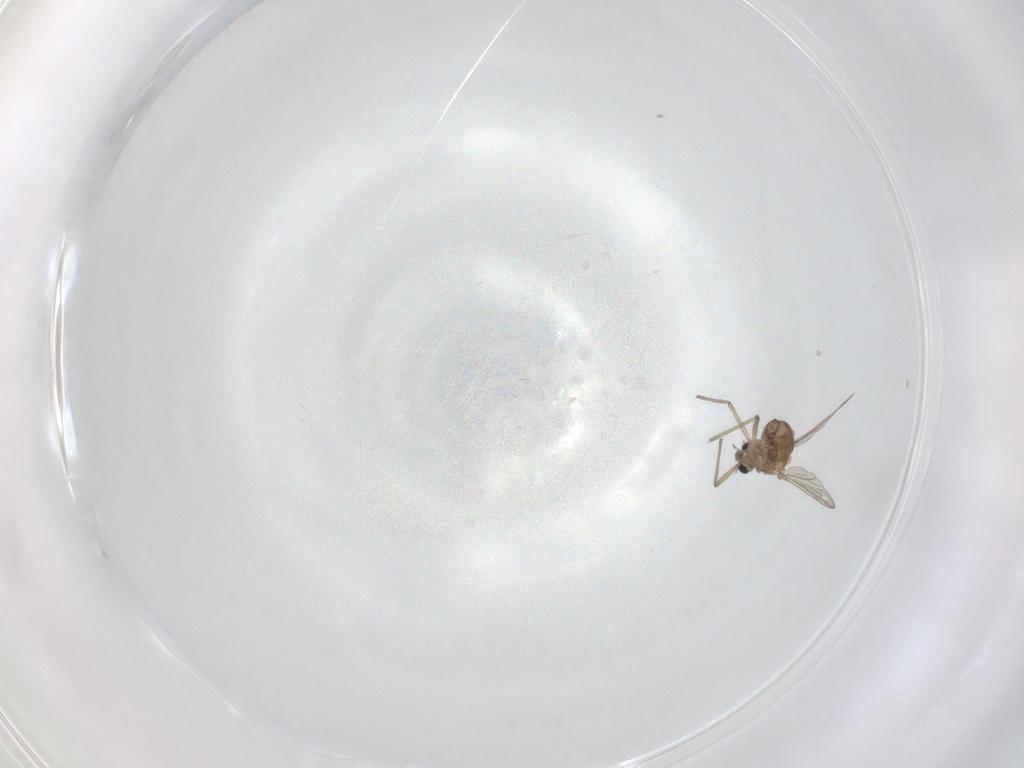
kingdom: Animalia
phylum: Arthropoda
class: Insecta
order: Diptera
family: Chironomidae
